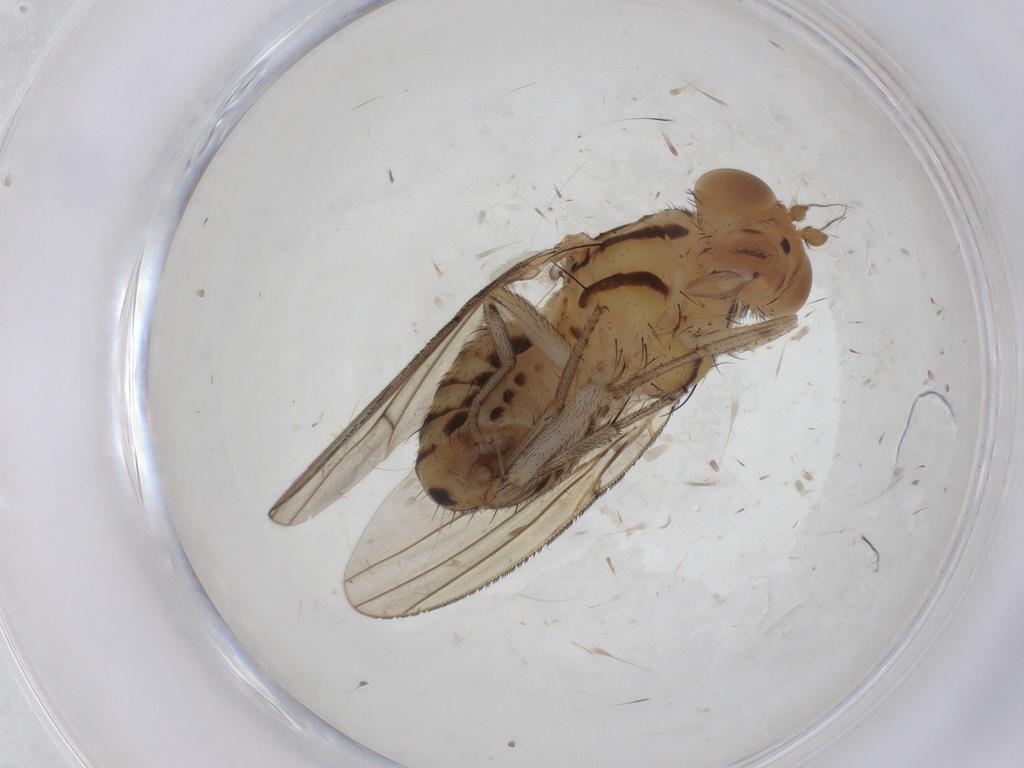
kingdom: Animalia
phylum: Arthropoda
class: Insecta
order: Diptera
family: Lauxaniidae
